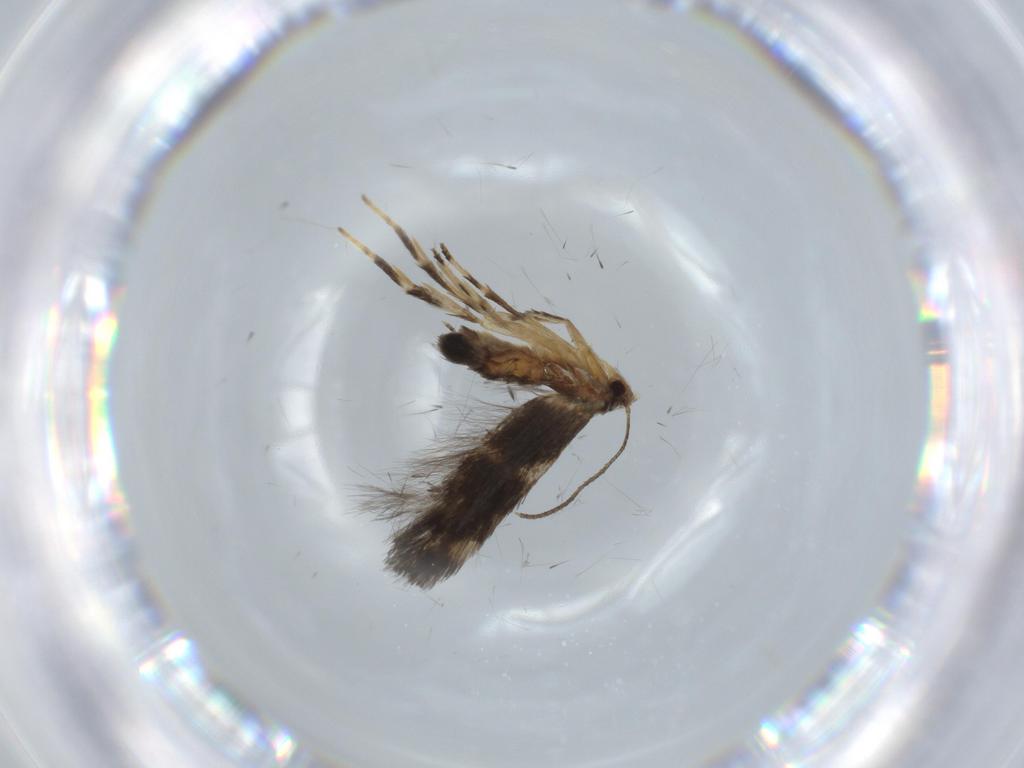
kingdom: Animalia
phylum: Arthropoda
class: Insecta
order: Lepidoptera
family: Cosmopterigidae
